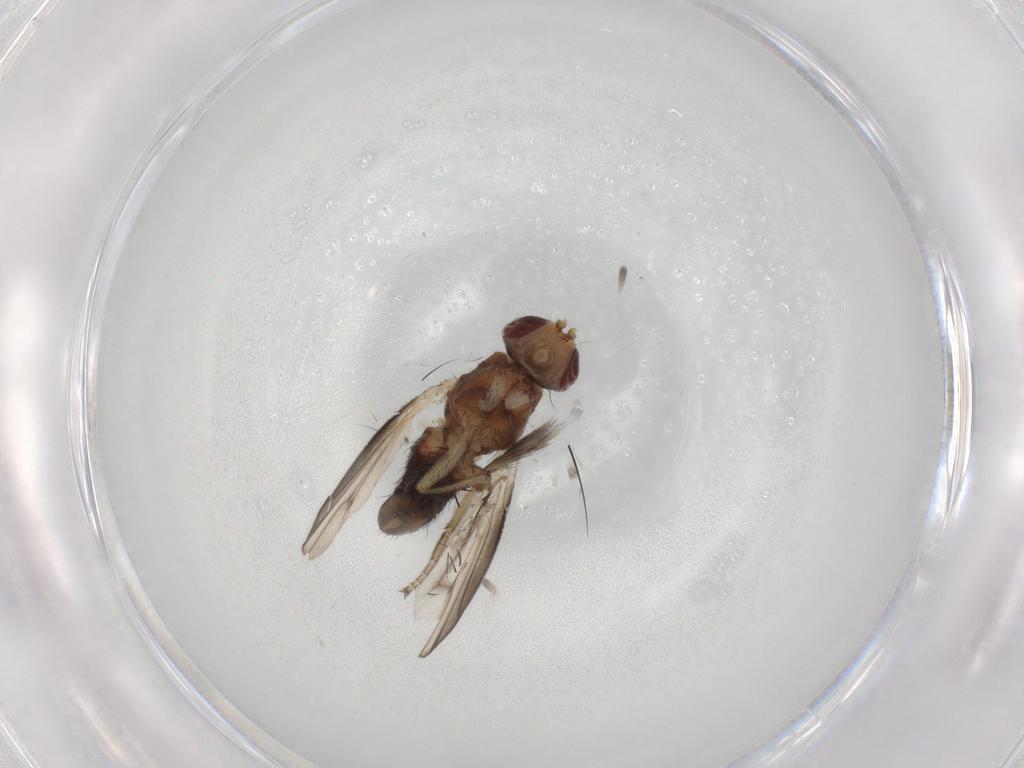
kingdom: Animalia
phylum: Arthropoda
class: Insecta
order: Diptera
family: Heleomyzidae
